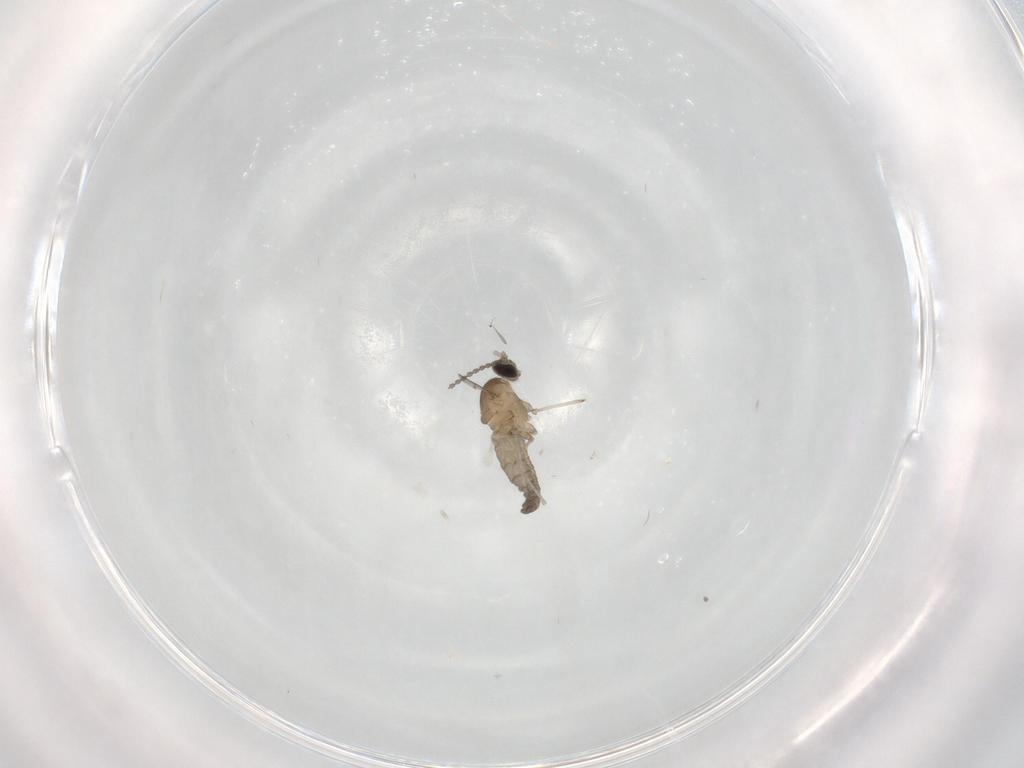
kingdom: Animalia
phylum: Arthropoda
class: Insecta
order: Diptera
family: Cecidomyiidae
